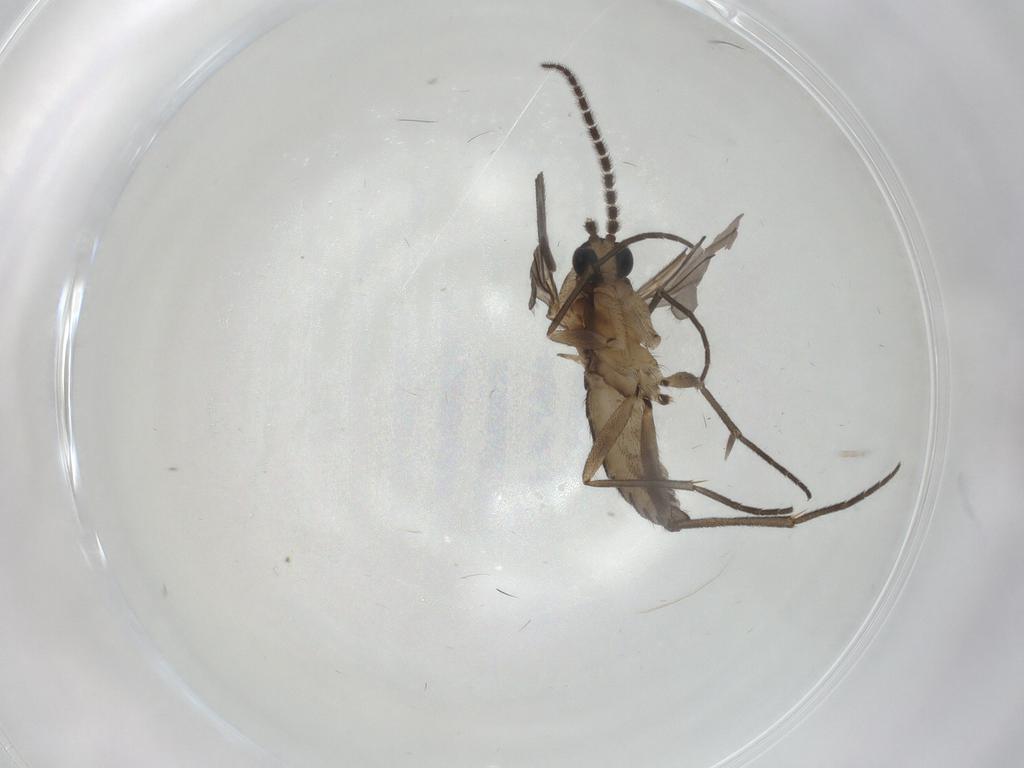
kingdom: Animalia
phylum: Arthropoda
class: Insecta
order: Diptera
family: Sciaridae
